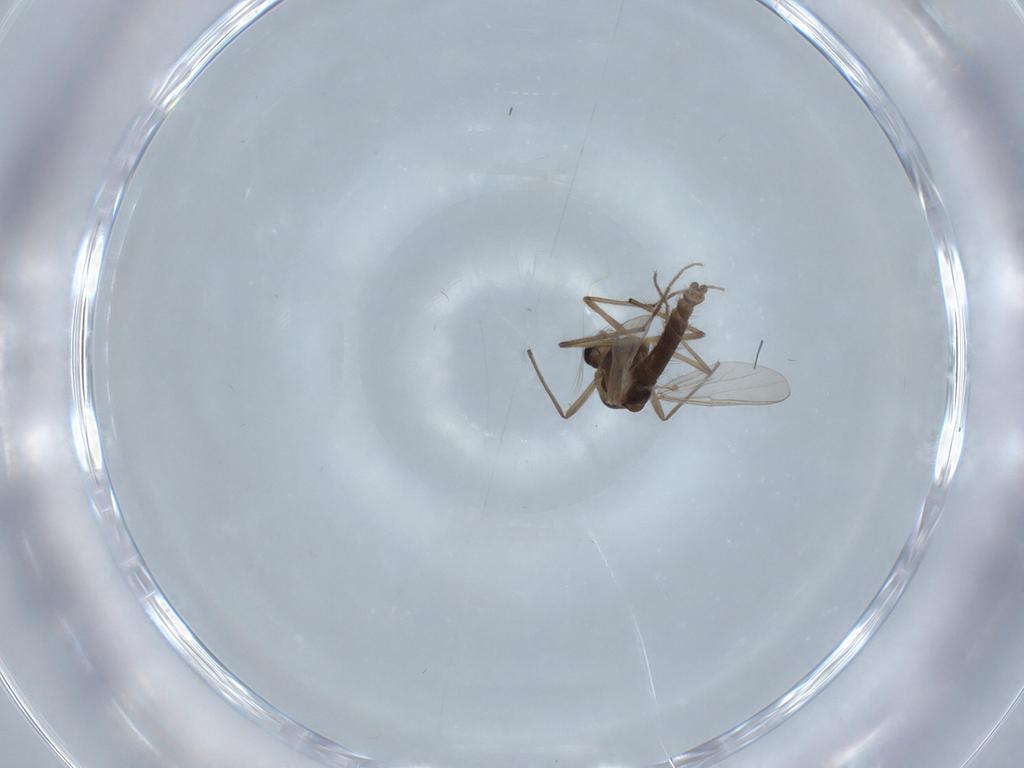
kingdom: Animalia
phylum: Arthropoda
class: Insecta
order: Diptera
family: Chironomidae
